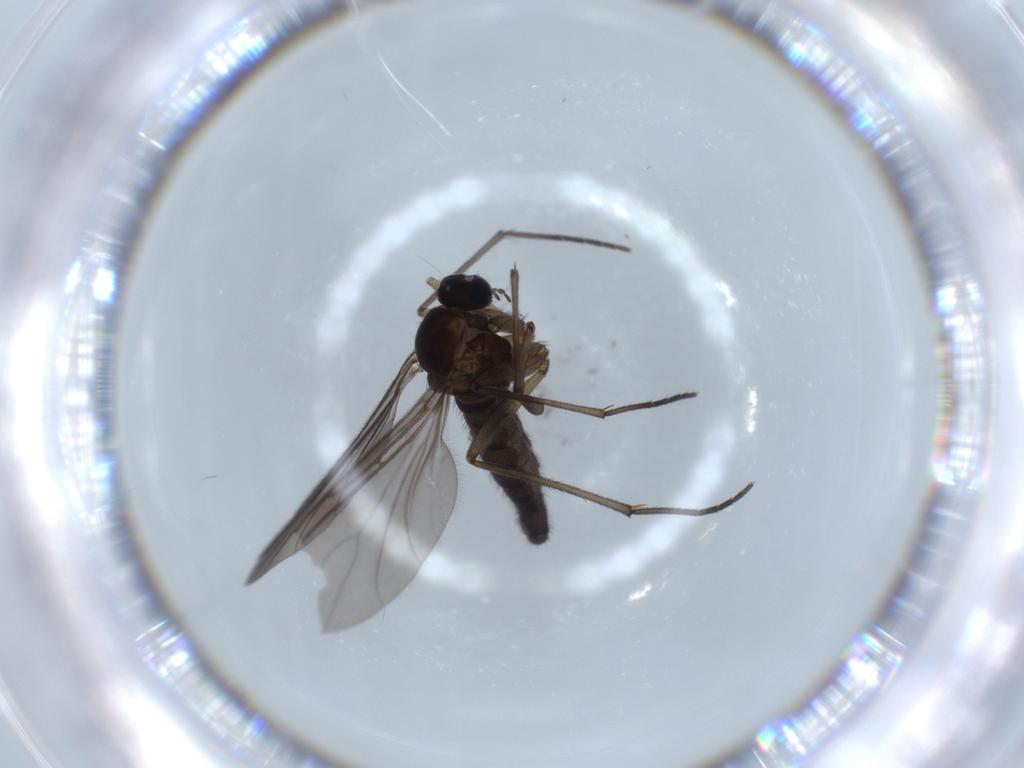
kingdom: Animalia
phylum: Arthropoda
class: Insecta
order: Diptera
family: Sciaridae
